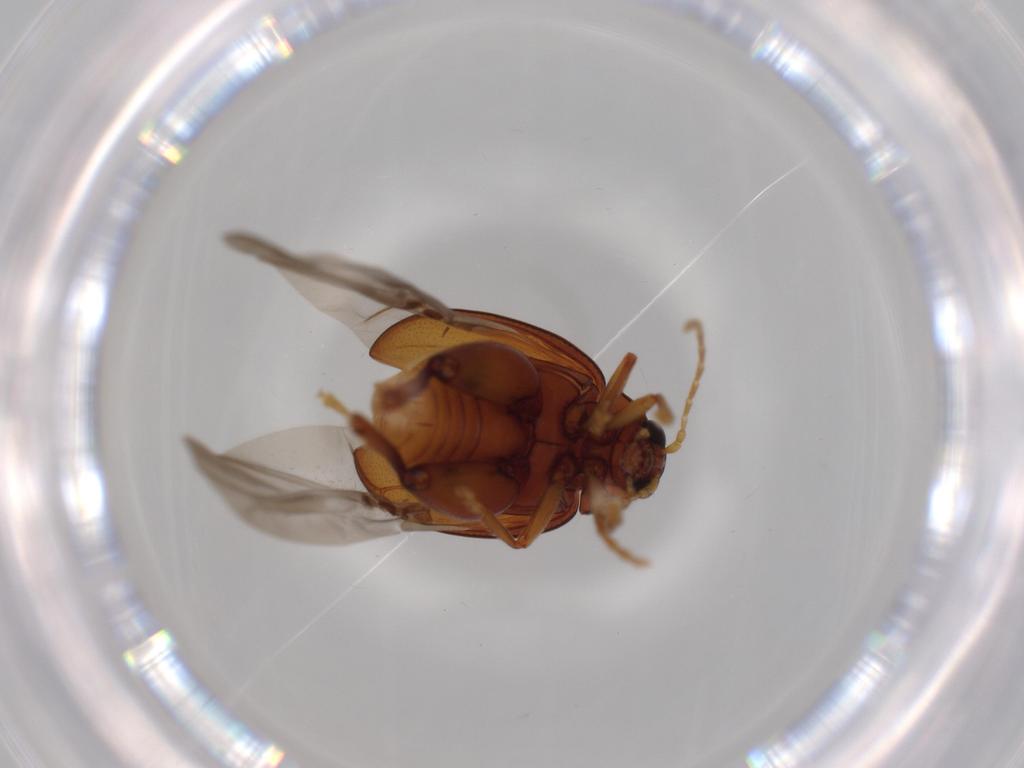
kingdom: Animalia
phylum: Arthropoda
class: Insecta
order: Coleoptera
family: Chrysomelidae
